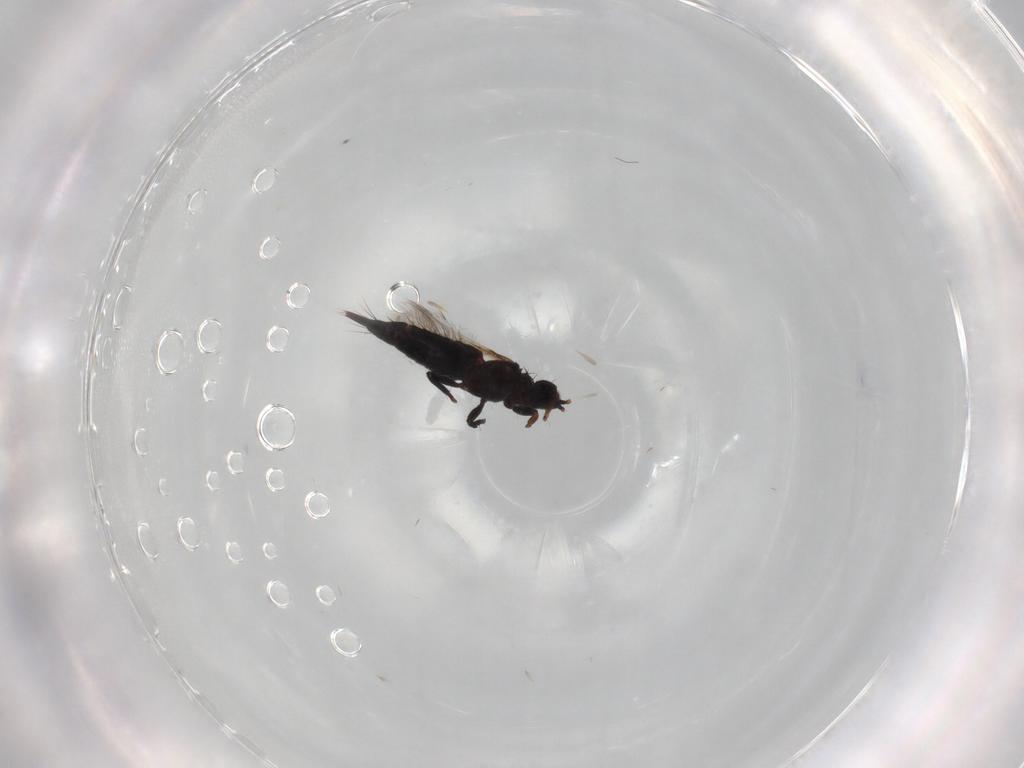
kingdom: Animalia
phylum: Arthropoda
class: Insecta
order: Thysanoptera
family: Phlaeothripidae
